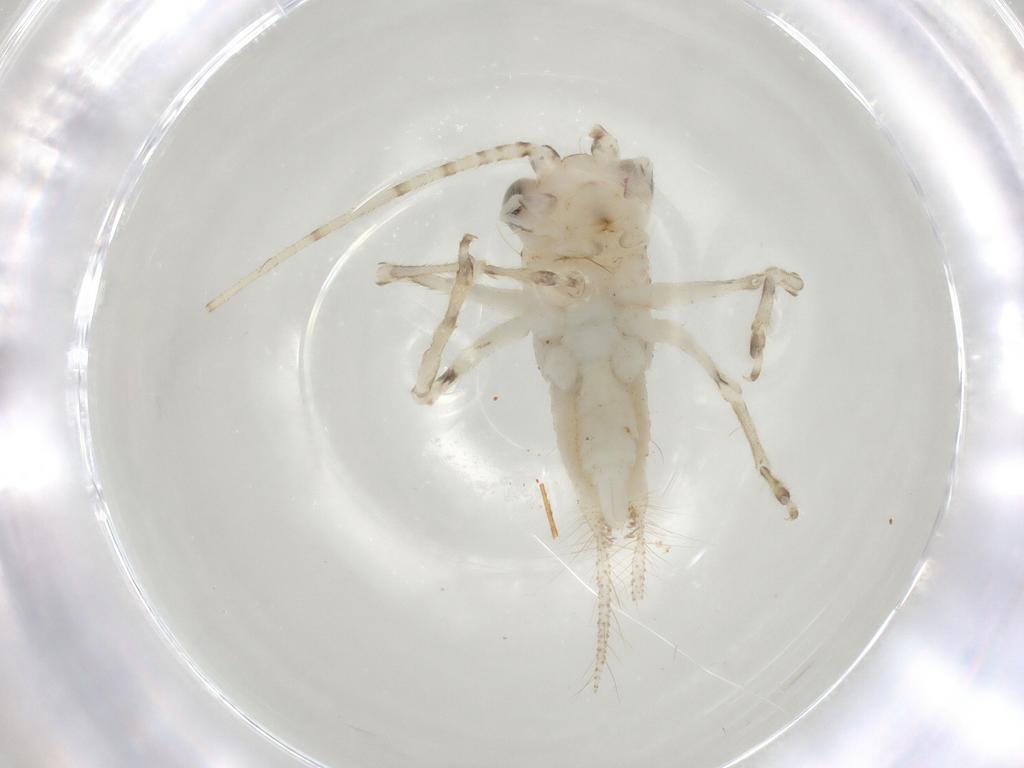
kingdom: Animalia
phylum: Arthropoda
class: Insecta
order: Orthoptera
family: Trigonidiidae
